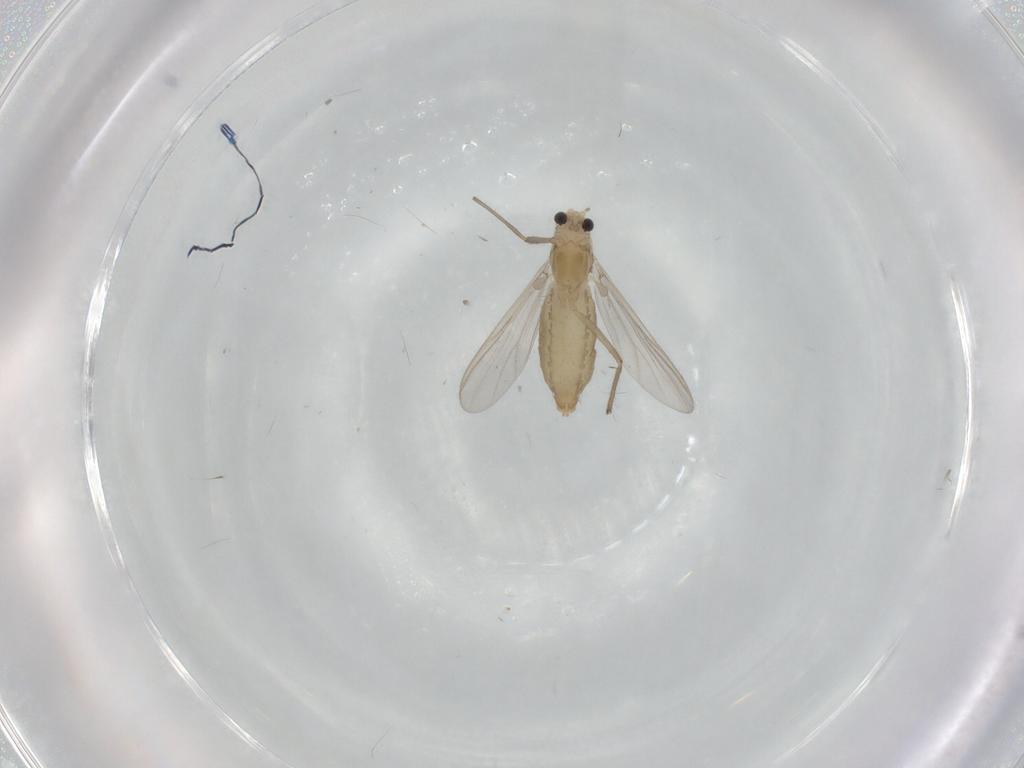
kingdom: Animalia
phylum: Arthropoda
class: Insecta
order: Diptera
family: Chironomidae
